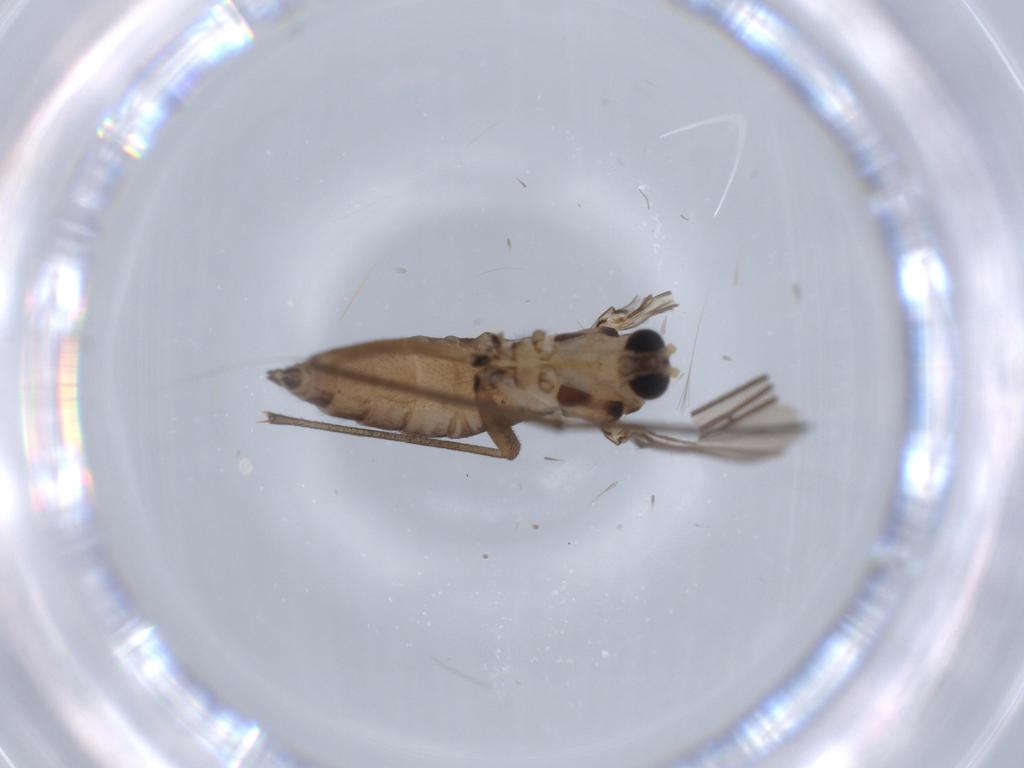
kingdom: Animalia
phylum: Arthropoda
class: Insecta
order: Diptera
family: Sciaridae
